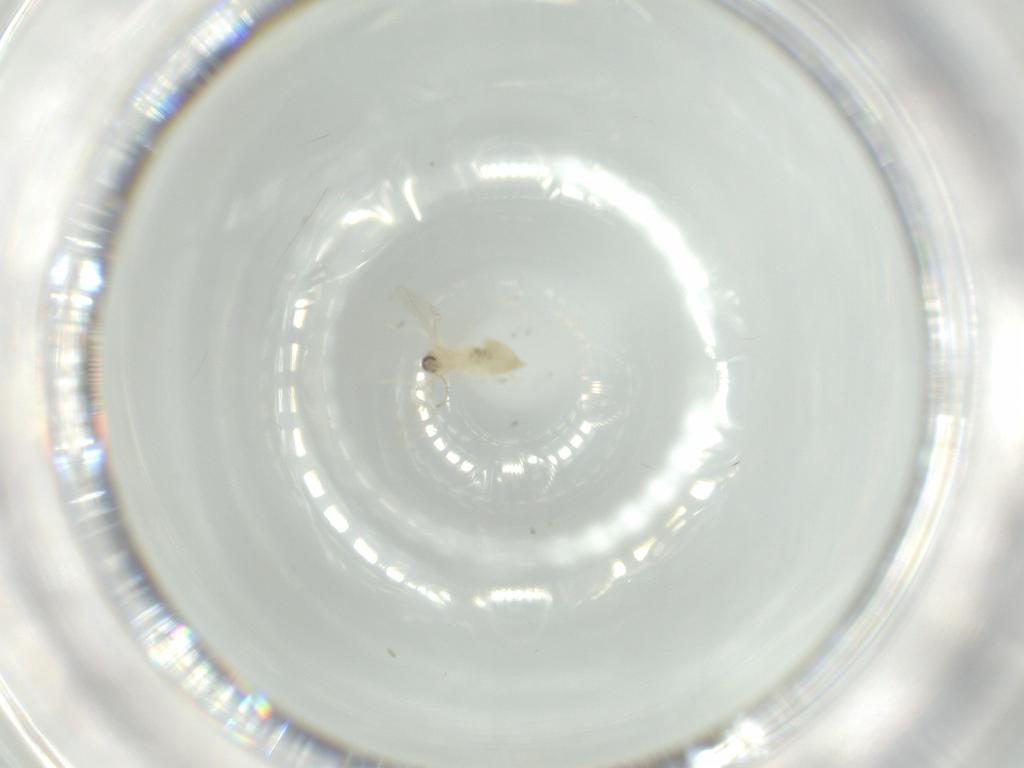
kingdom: Animalia
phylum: Arthropoda
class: Insecta
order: Diptera
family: Cecidomyiidae
